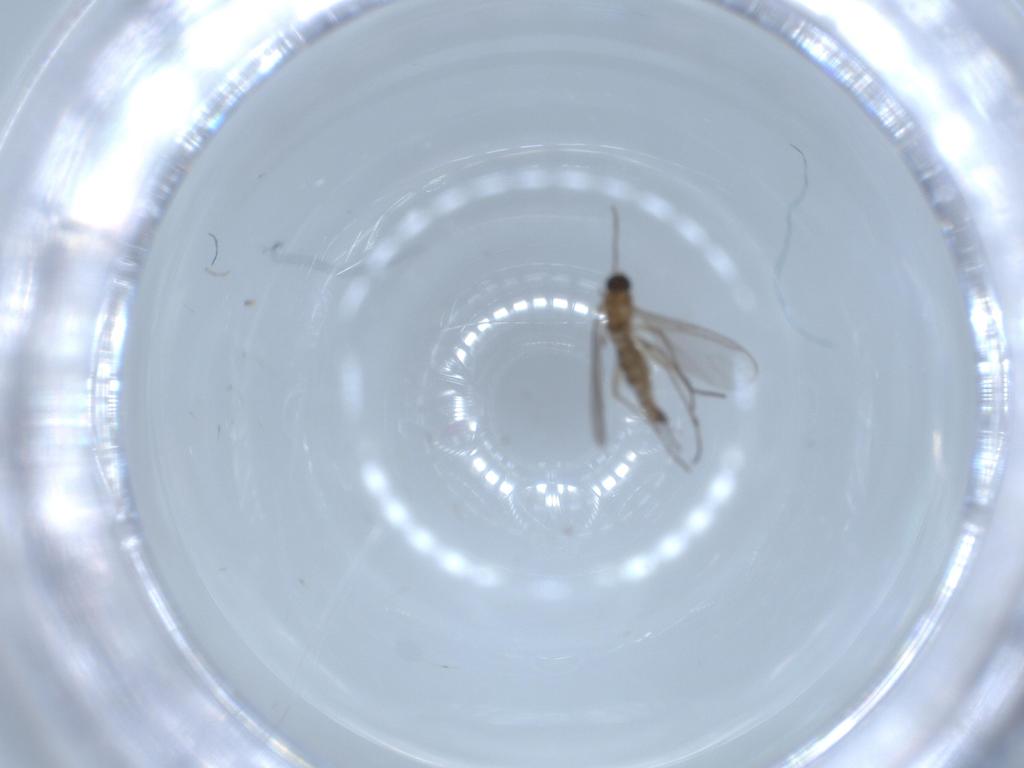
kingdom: Animalia
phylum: Arthropoda
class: Insecta
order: Diptera
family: Sciaridae
